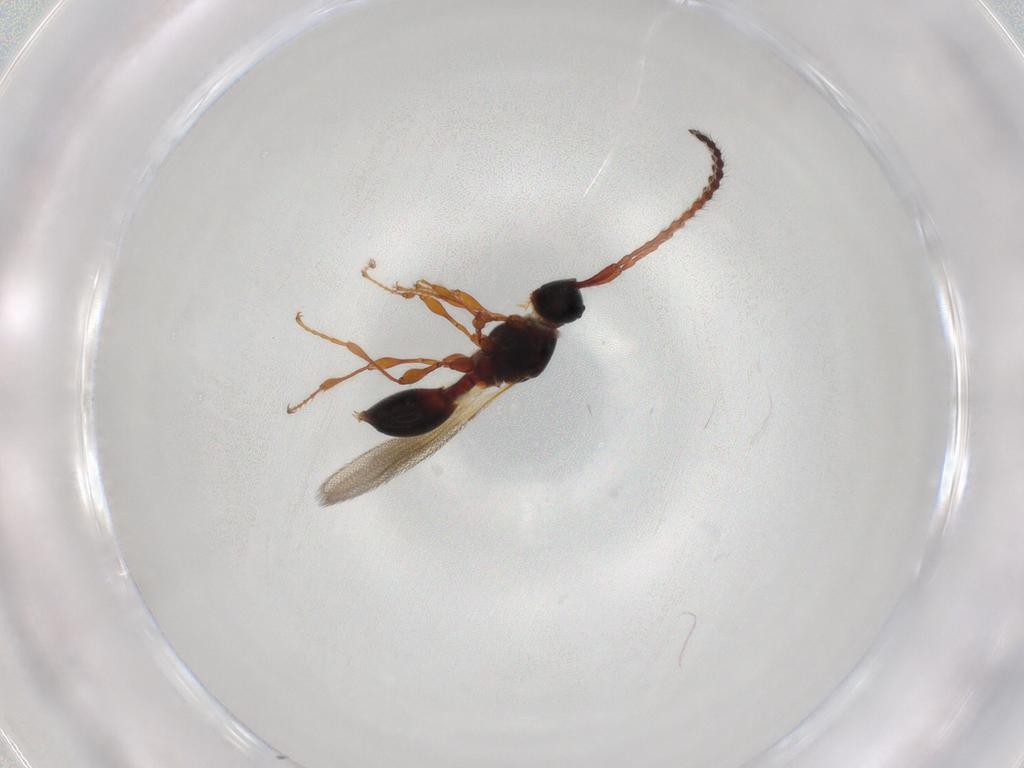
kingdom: Animalia
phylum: Arthropoda
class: Insecta
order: Hymenoptera
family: Diapriidae
